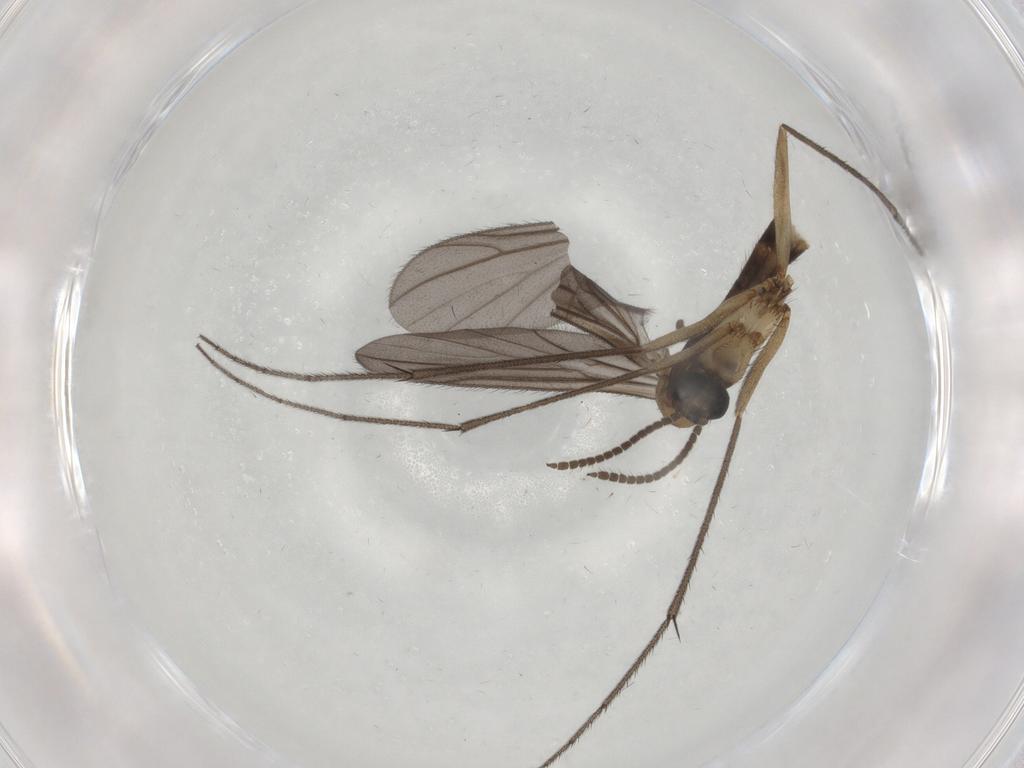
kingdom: Animalia
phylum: Arthropoda
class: Insecta
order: Diptera
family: Ditomyiidae
